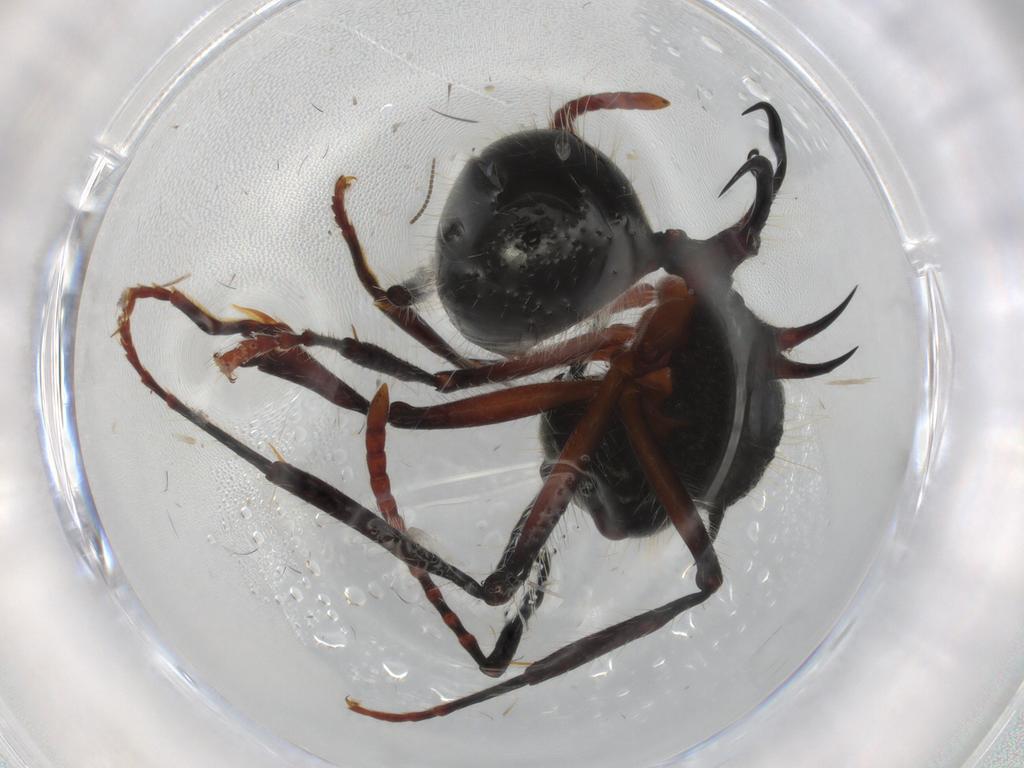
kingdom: Animalia
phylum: Arthropoda
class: Insecta
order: Hymenoptera
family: Formicidae
